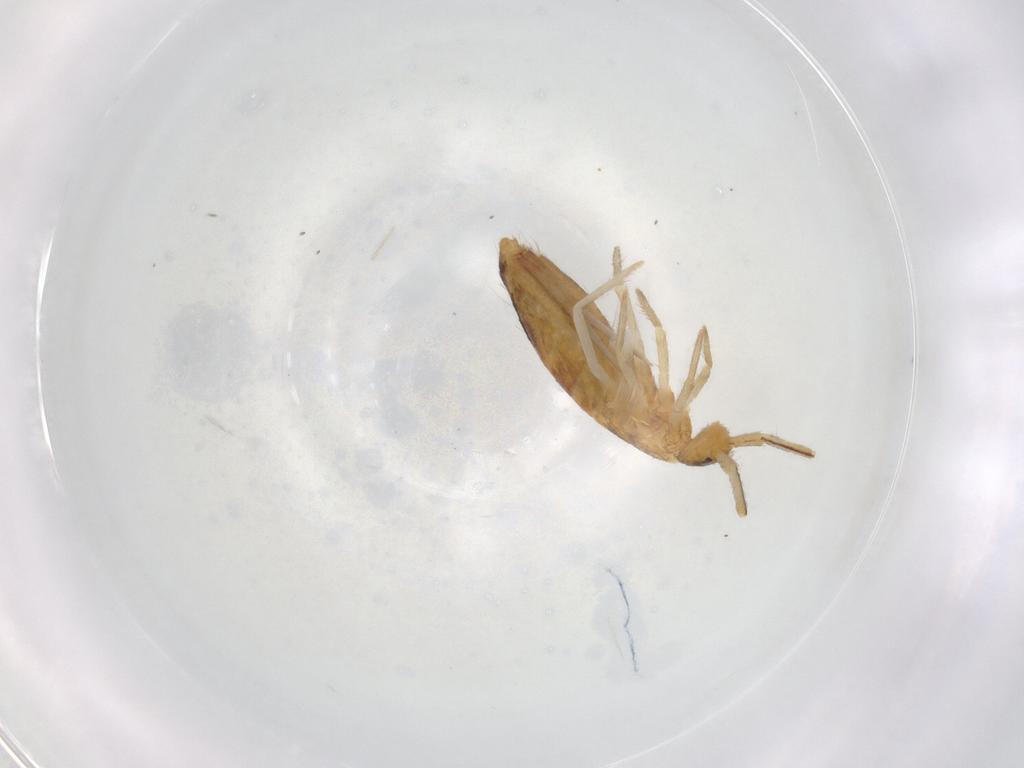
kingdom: Animalia
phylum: Arthropoda
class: Collembola
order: Entomobryomorpha
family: Entomobryidae
